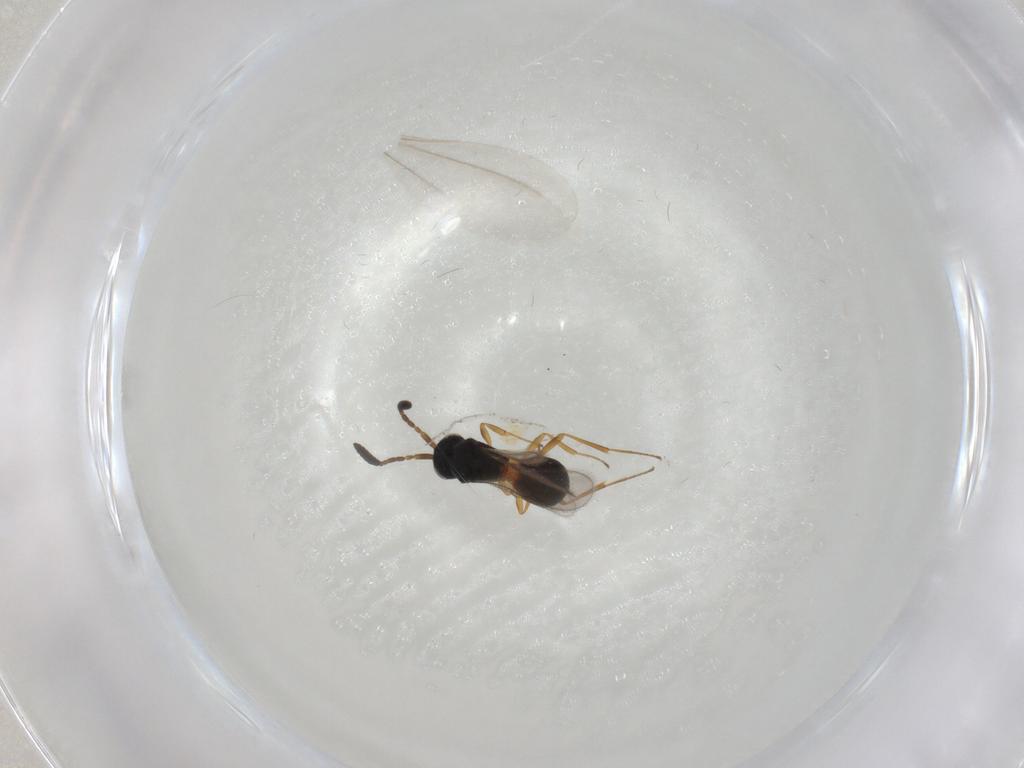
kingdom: Animalia
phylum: Arthropoda
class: Insecta
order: Hymenoptera
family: Scelionidae
